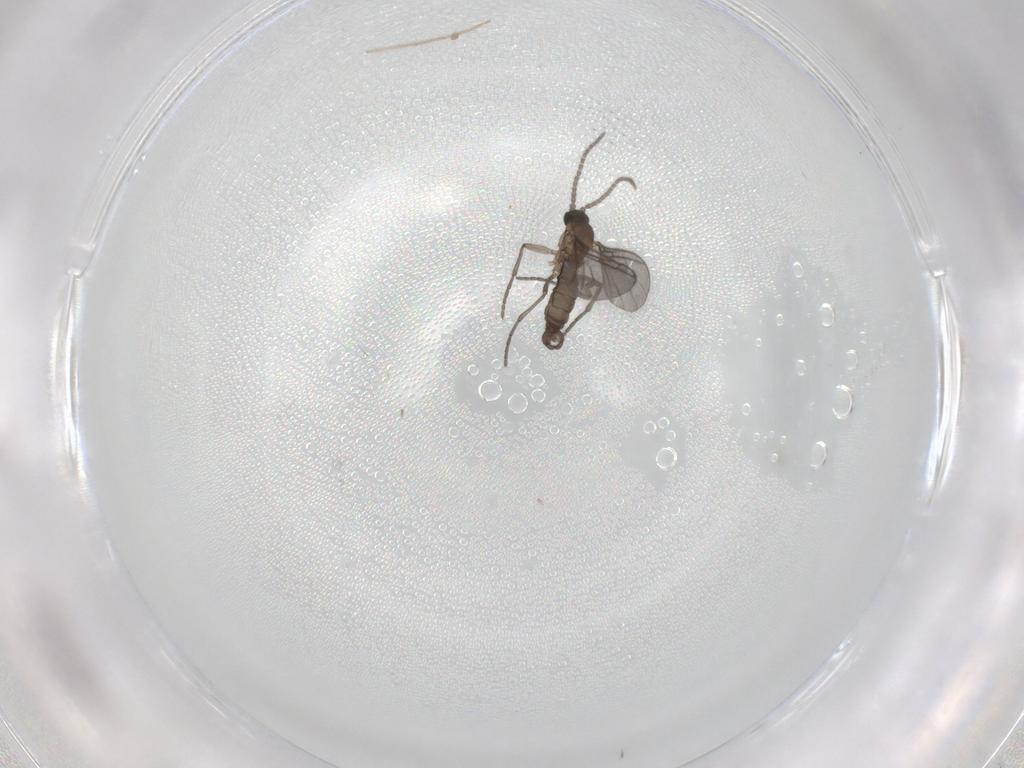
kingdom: Animalia
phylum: Arthropoda
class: Insecta
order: Diptera
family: Sciaridae
